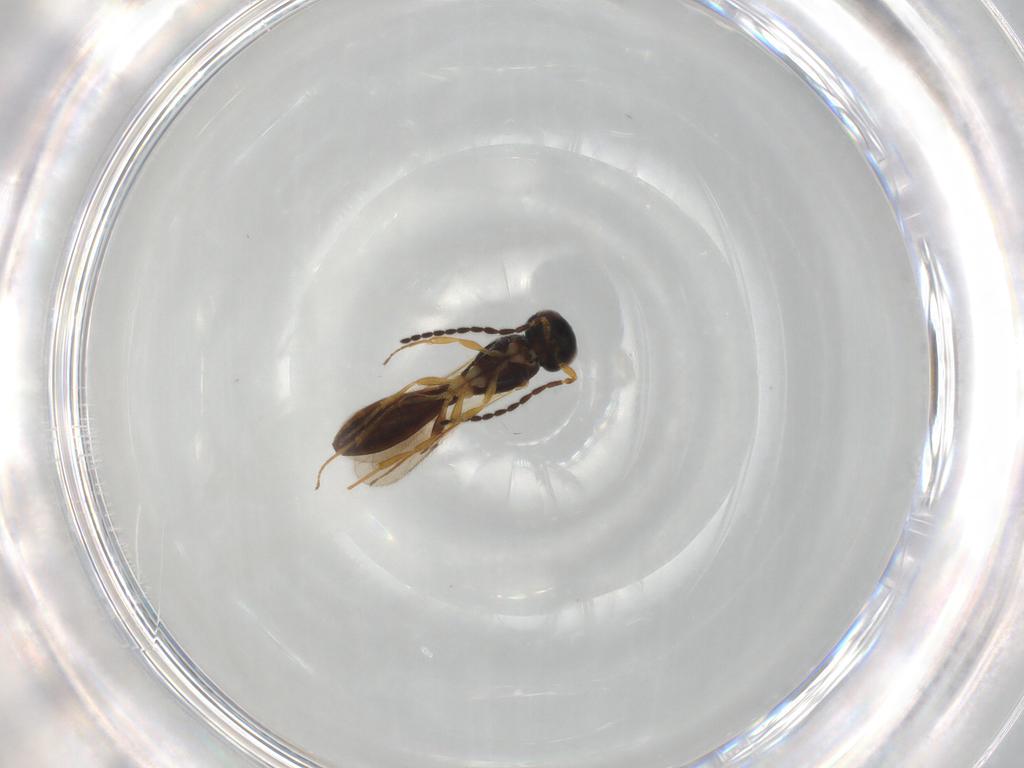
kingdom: Animalia
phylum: Arthropoda
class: Insecta
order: Hymenoptera
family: Scelionidae
